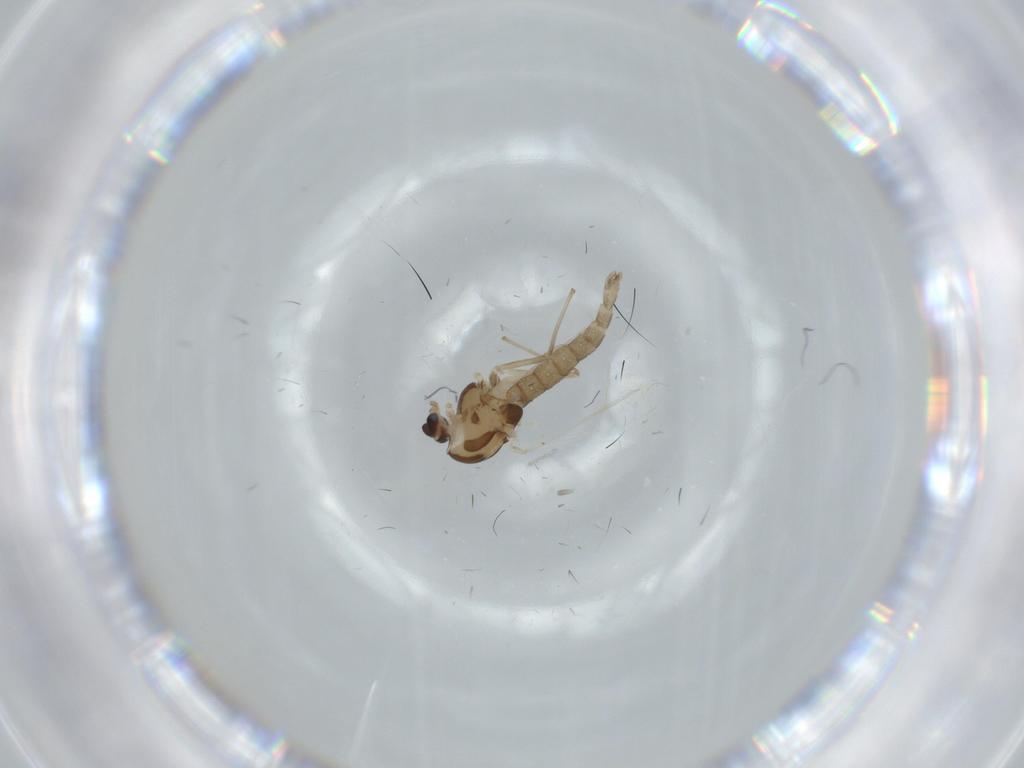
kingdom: Animalia
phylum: Arthropoda
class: Insecta
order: Diptera
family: Chironomidae
